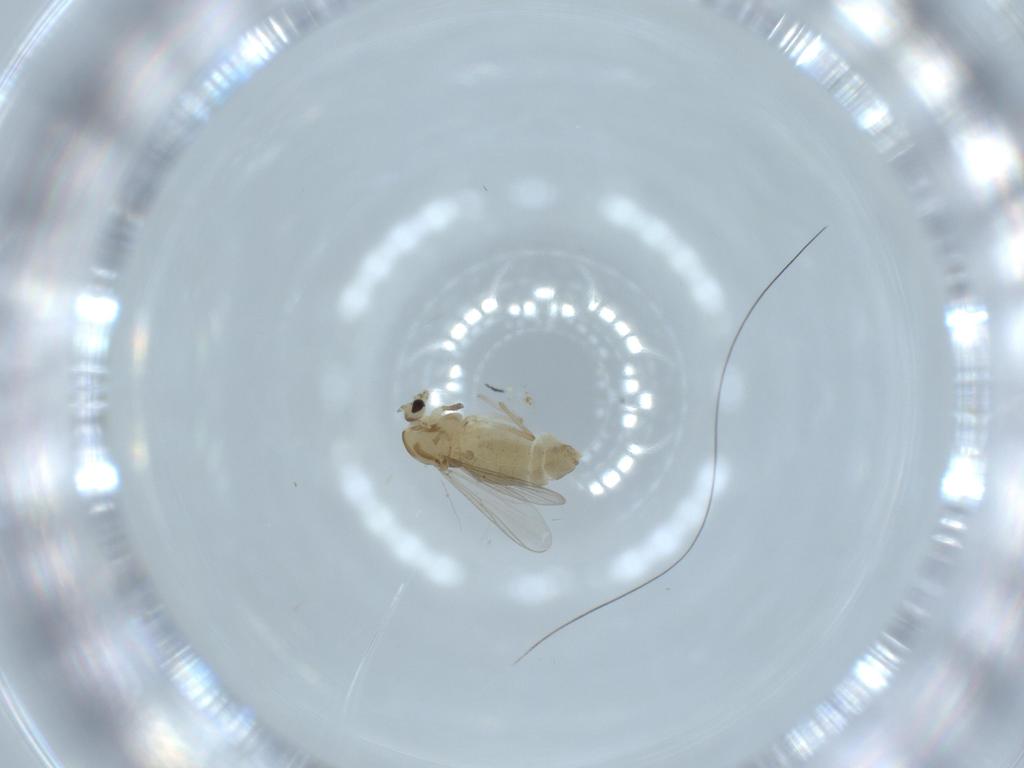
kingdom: Animalia
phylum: Arthropoda
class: Insecta
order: Diptera
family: Chironomidae
